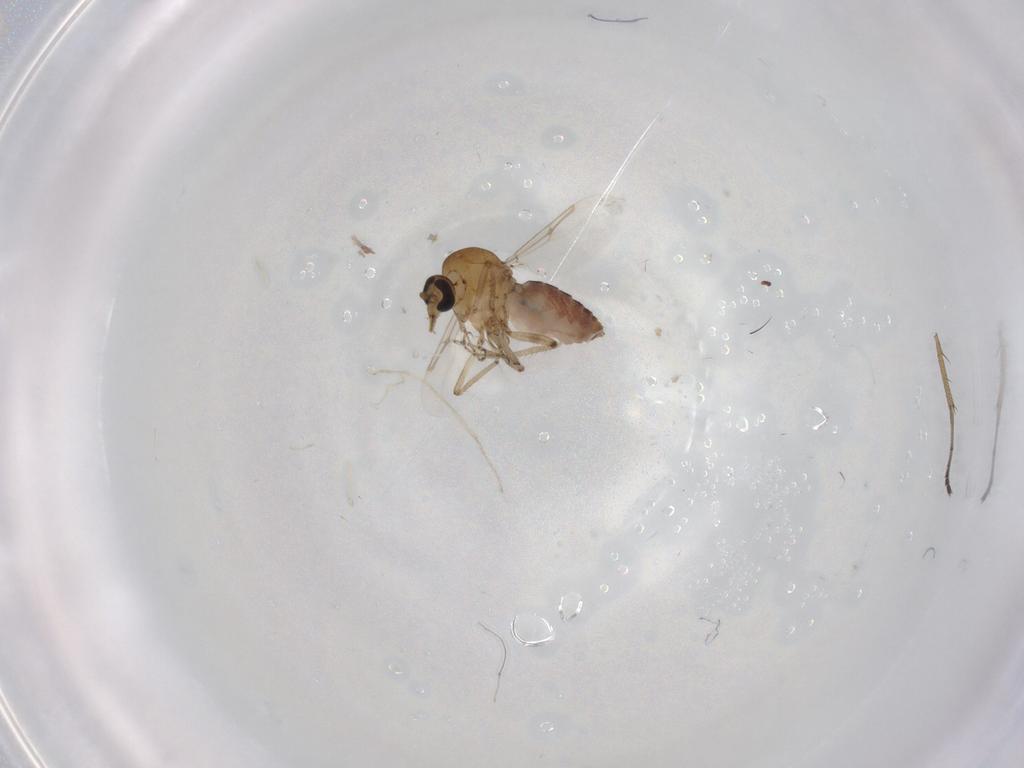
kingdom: Animalia
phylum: Arthropoda
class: Insecta
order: Diptera
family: Ceratopogonidae
